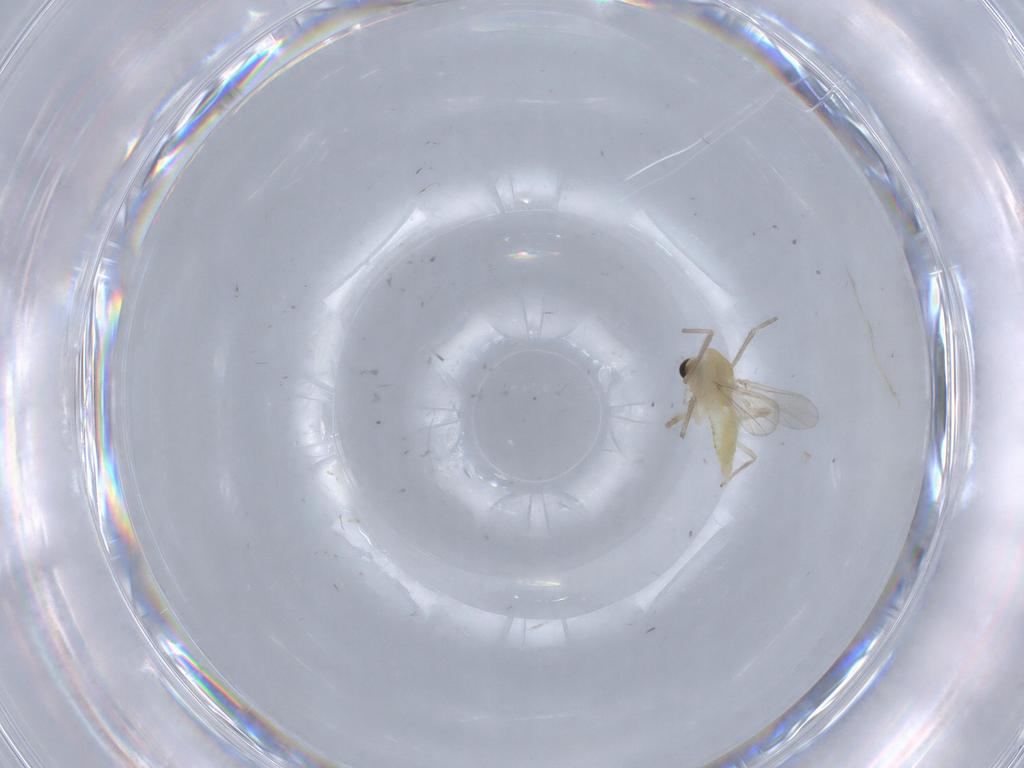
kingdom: Animalia
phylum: Arthropoda
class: Insecta
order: Diptera
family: Chironomidae
